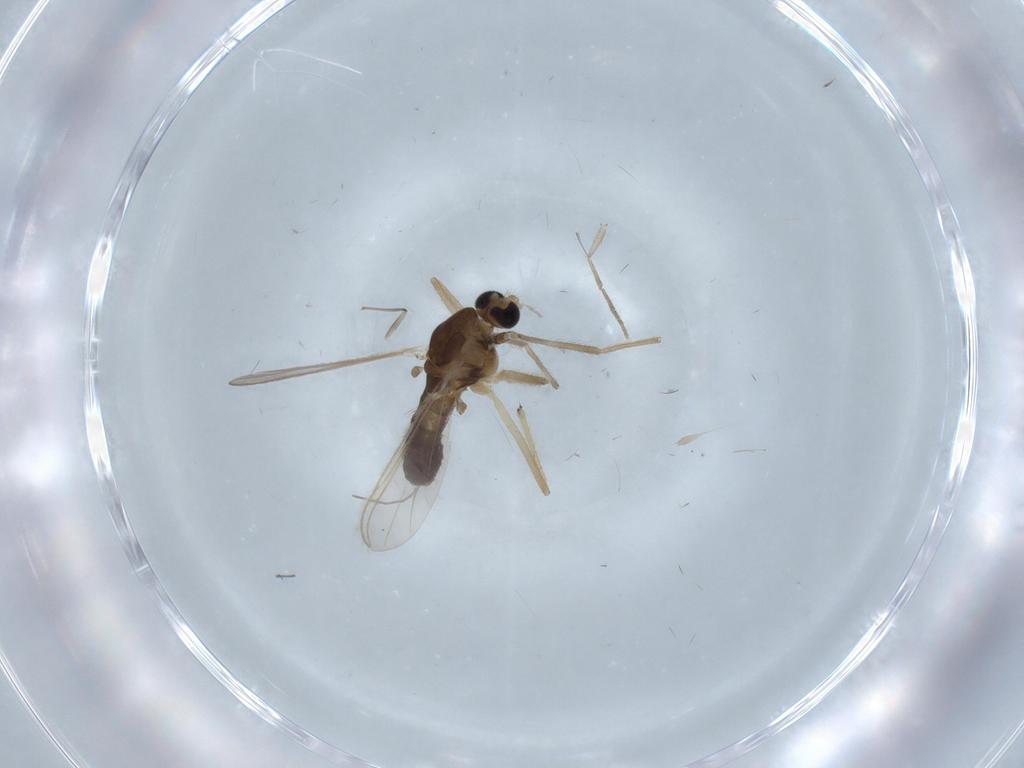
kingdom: Animalia
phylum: Arthropoda
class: Insecta
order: Diptera
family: Chironomidae
